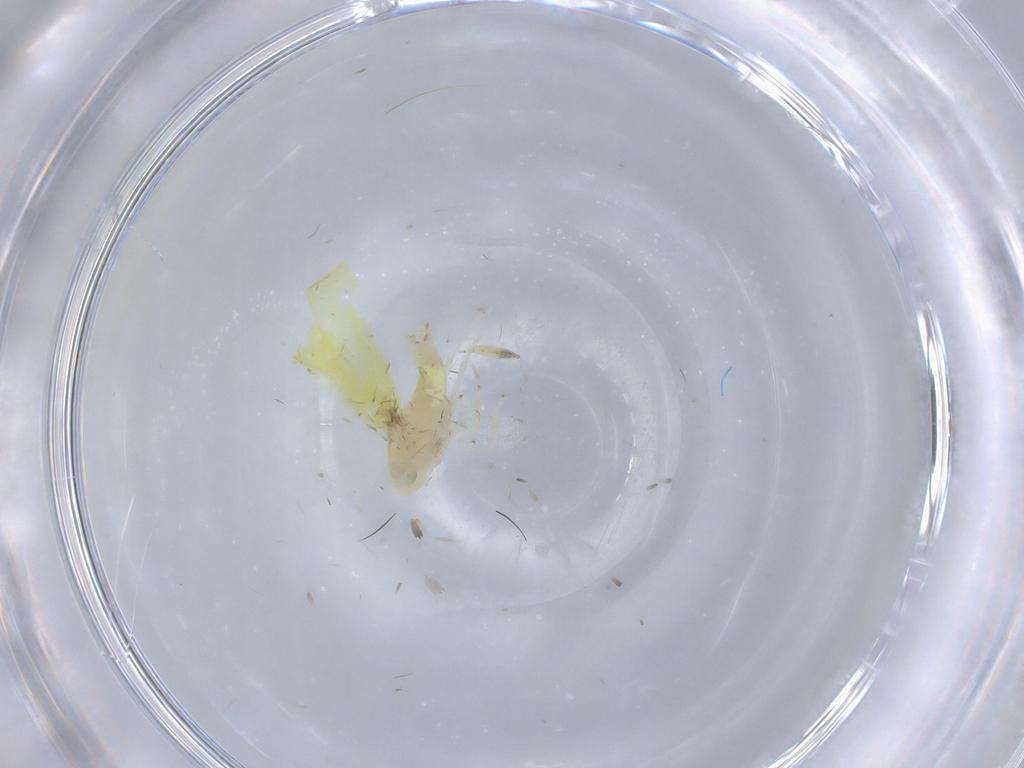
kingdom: Animalia
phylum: Arthropoda
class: Insecta
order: Hemiptera
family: Cicadellidae
